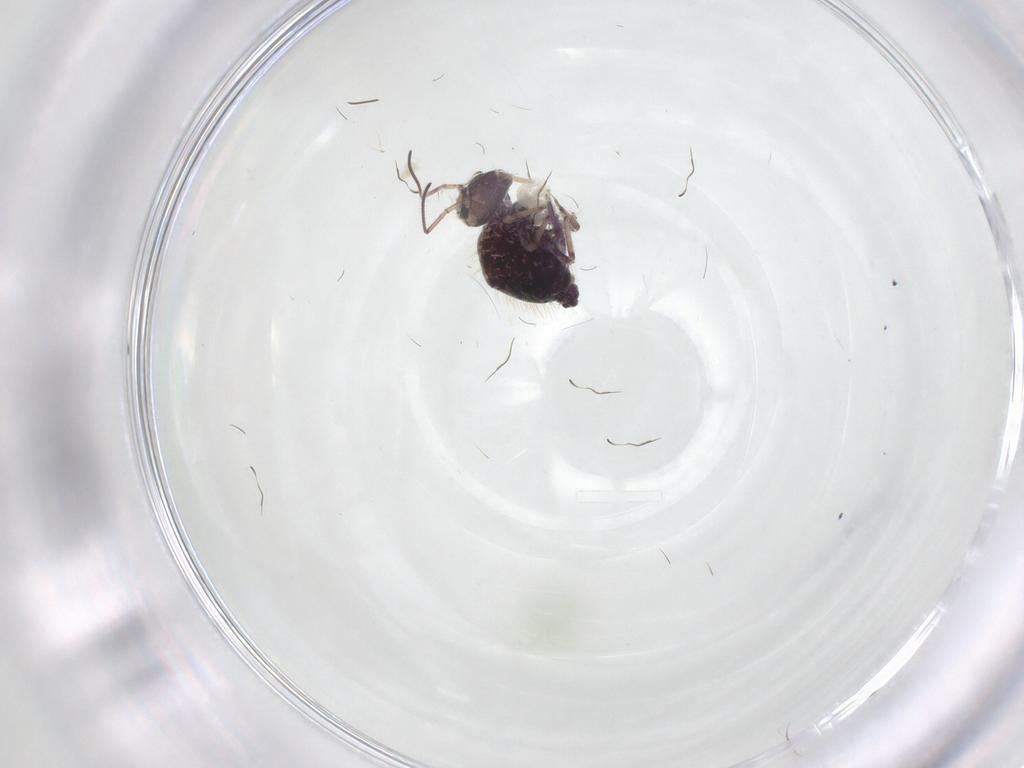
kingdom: Animalia
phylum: Arthropoda
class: Collembola
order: Symphypleona
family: Sminthuridae
